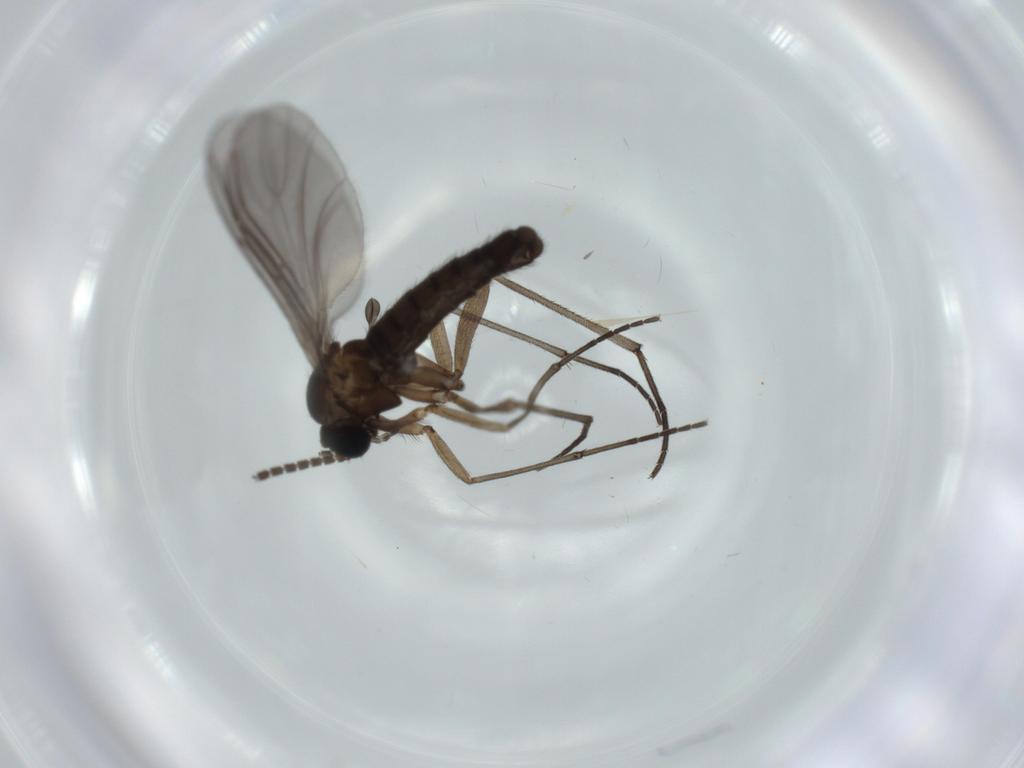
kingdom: Animalia
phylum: Arthropoda
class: Insecta
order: Diptera
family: Sciaridae
